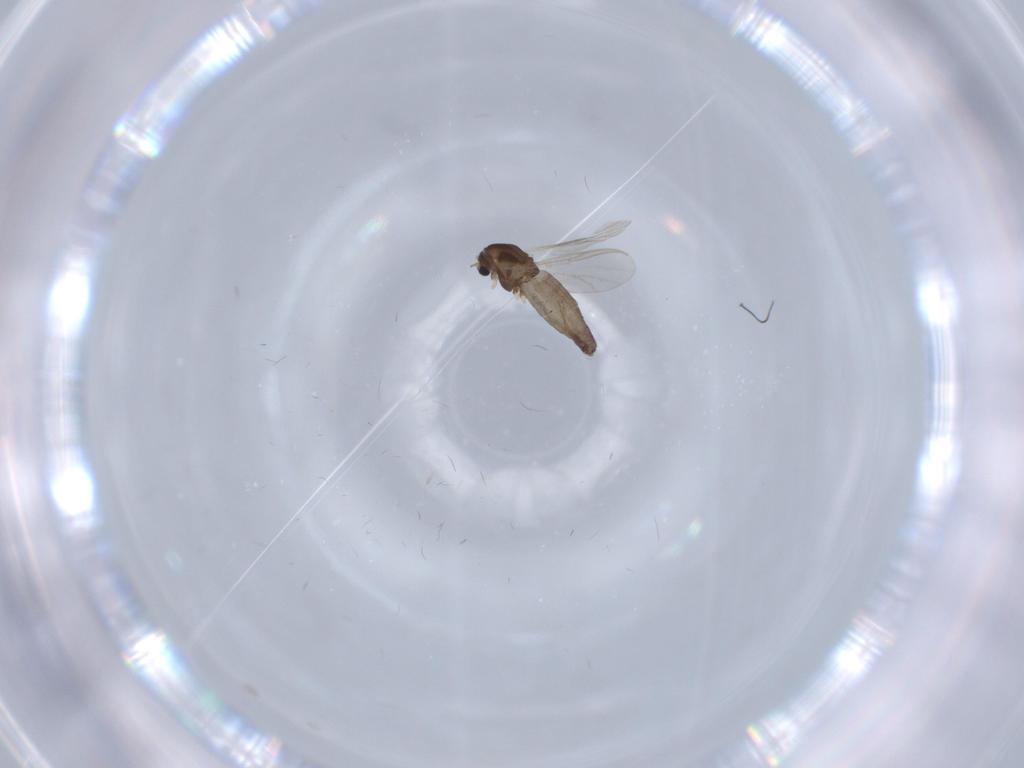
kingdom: Animalia
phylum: Arthropoda
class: Insecta
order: Diptera
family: Chironomidae
